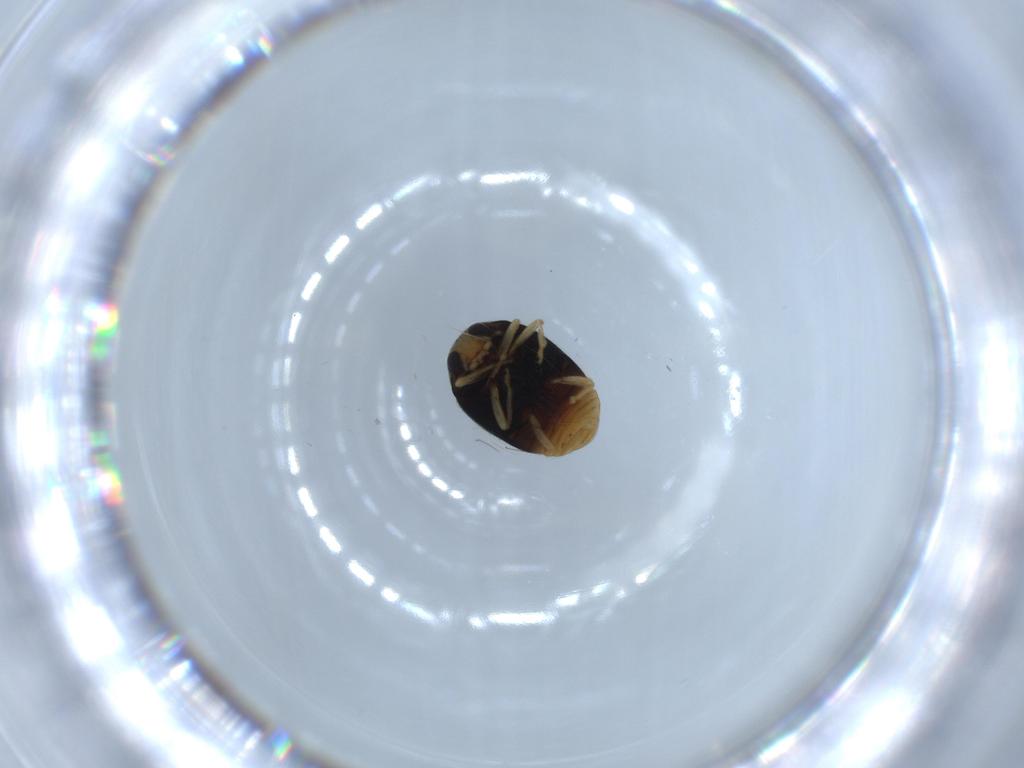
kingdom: Animalia
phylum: Arthropoda
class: Insecta
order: Coleoptera
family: Coccinellidae
